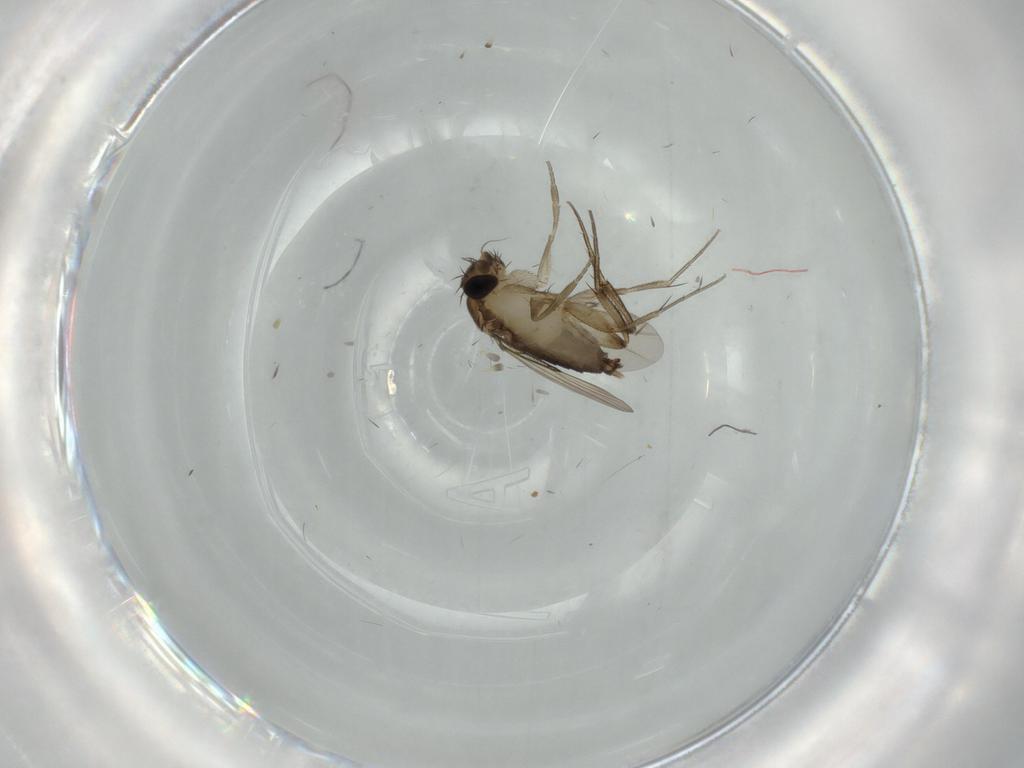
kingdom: Animalia
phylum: Arthropoda
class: Insecta
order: Diptera
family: Phoridae
